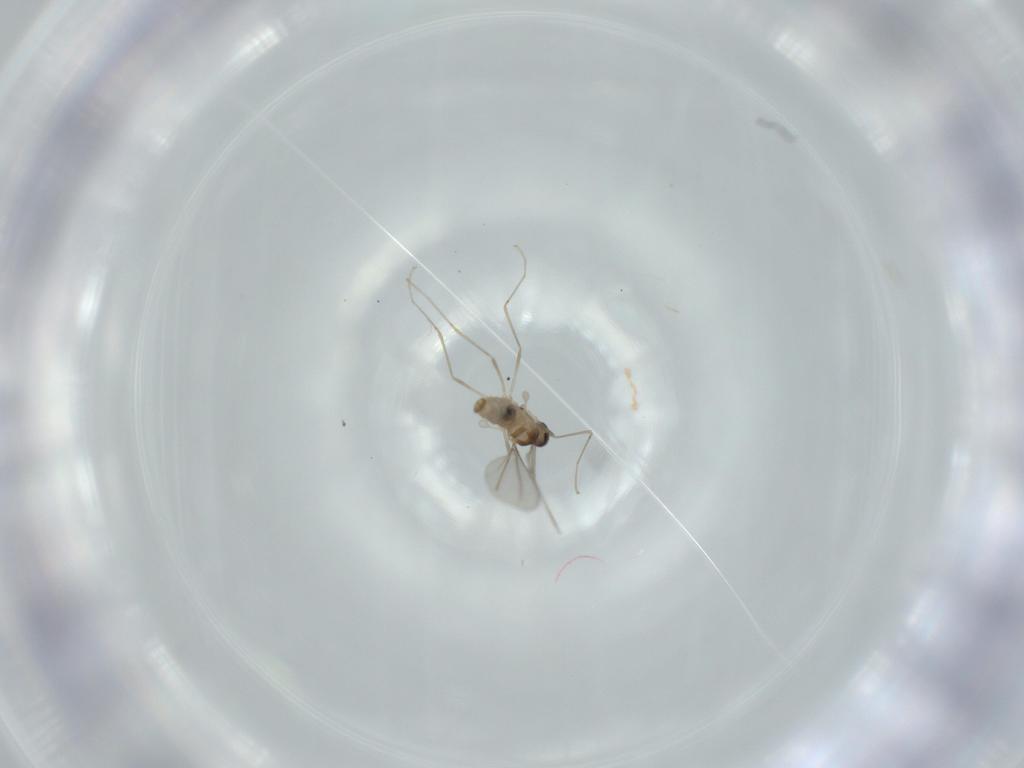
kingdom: Animalia
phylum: Arthropoda
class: Insecta
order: Diptera
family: Cecidomyiidae
